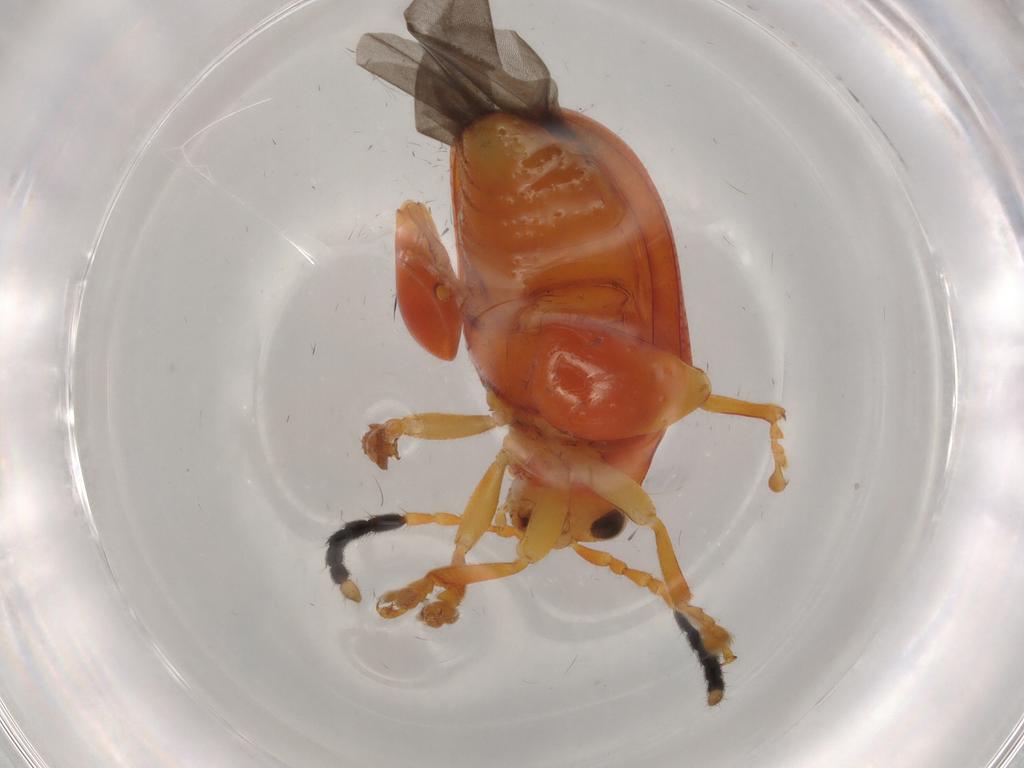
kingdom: Animalia
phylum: Arthropoda
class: Insecta
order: Coleoptera
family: Chrysomelidae
